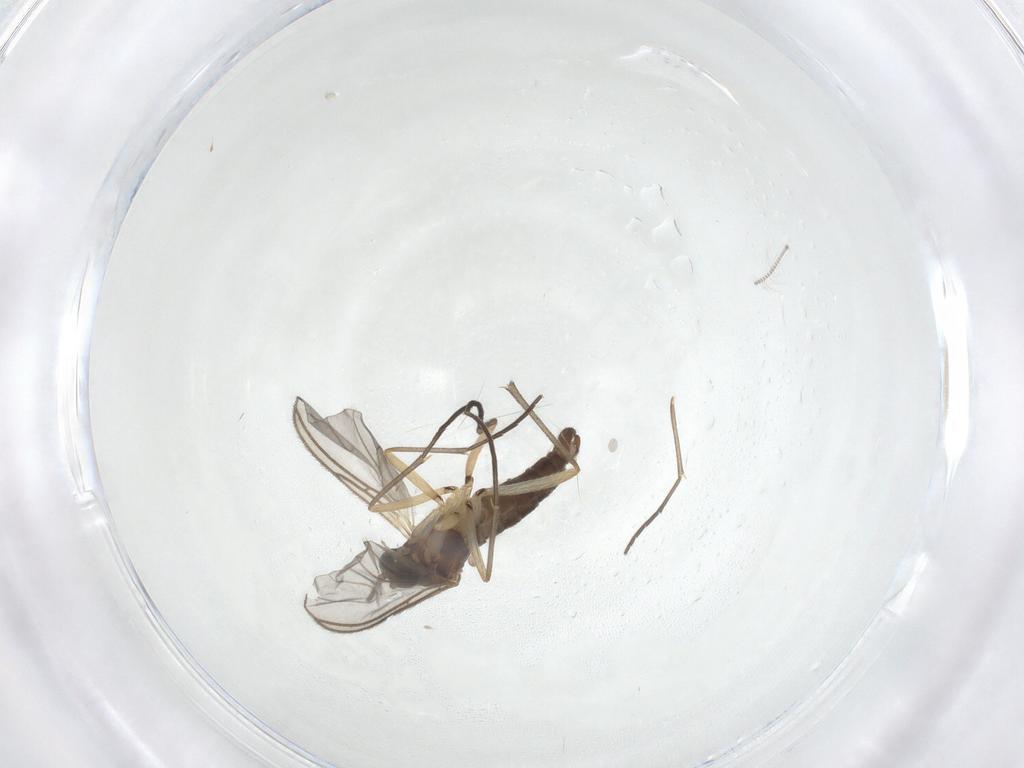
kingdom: Animalia
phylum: Arthropoda
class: Insecta
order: Diptera
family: Sciaridae
